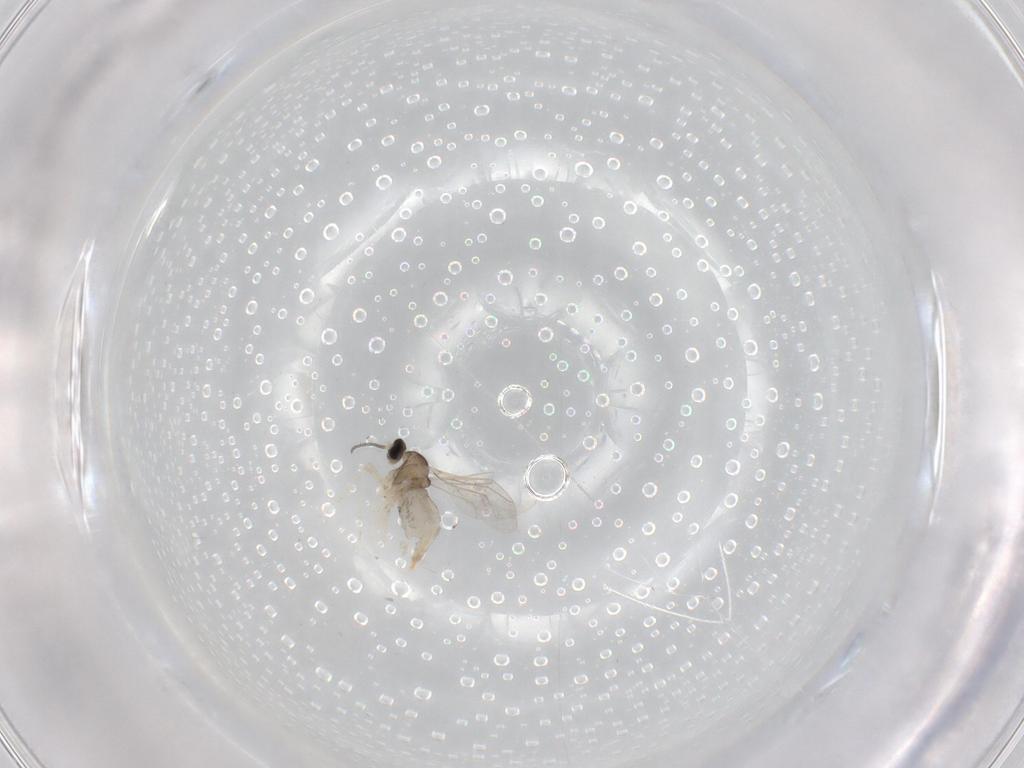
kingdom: Animalia
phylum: Arthropoda
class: Insecta
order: Diptera
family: Cecidomyiidae
